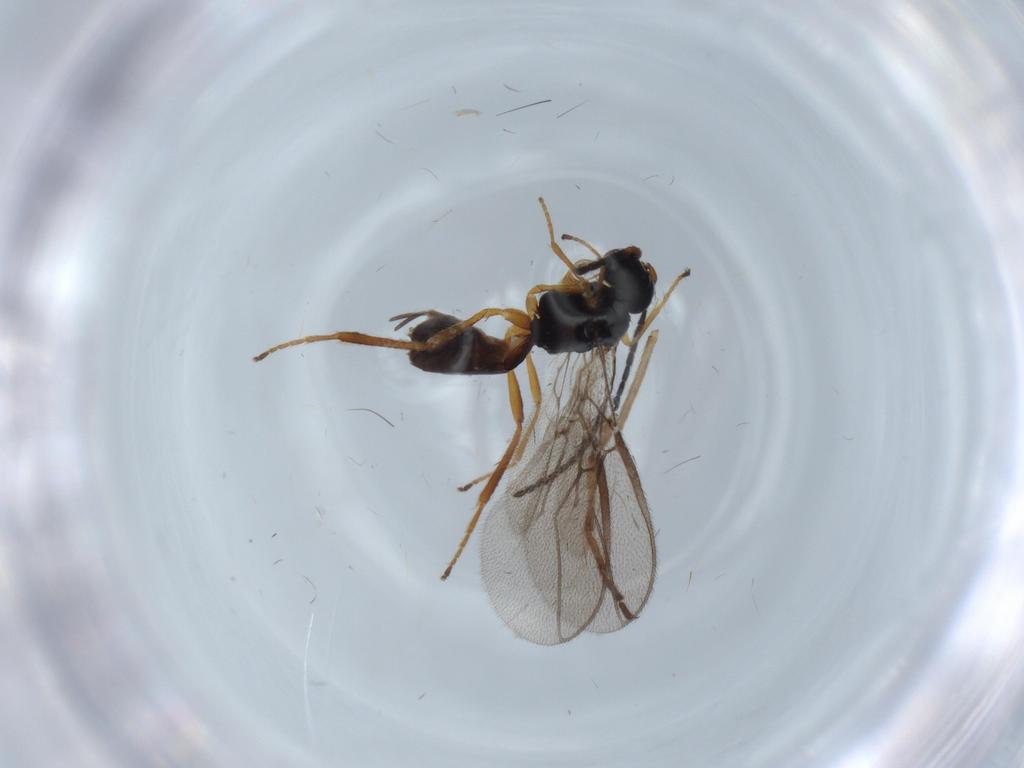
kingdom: Animalia
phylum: Arthropoda
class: Insecta
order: Hymenoptera
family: Braconidae
